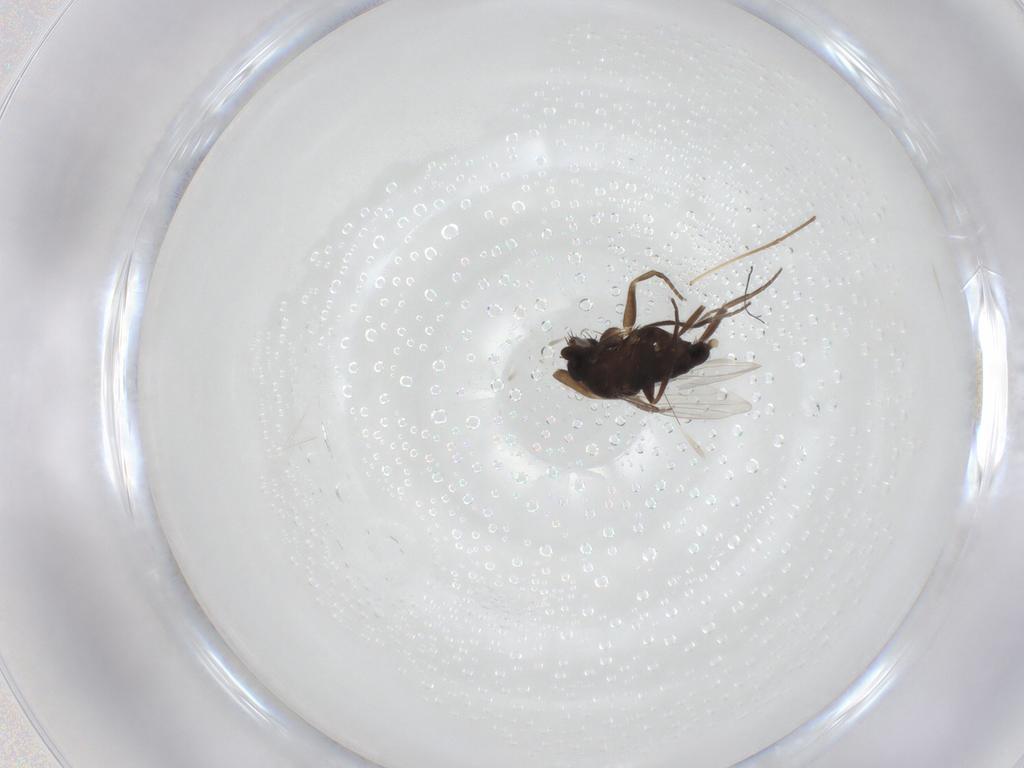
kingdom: Animalia
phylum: Arthropoda
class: Insecta
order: Diptera
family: Phoridae
